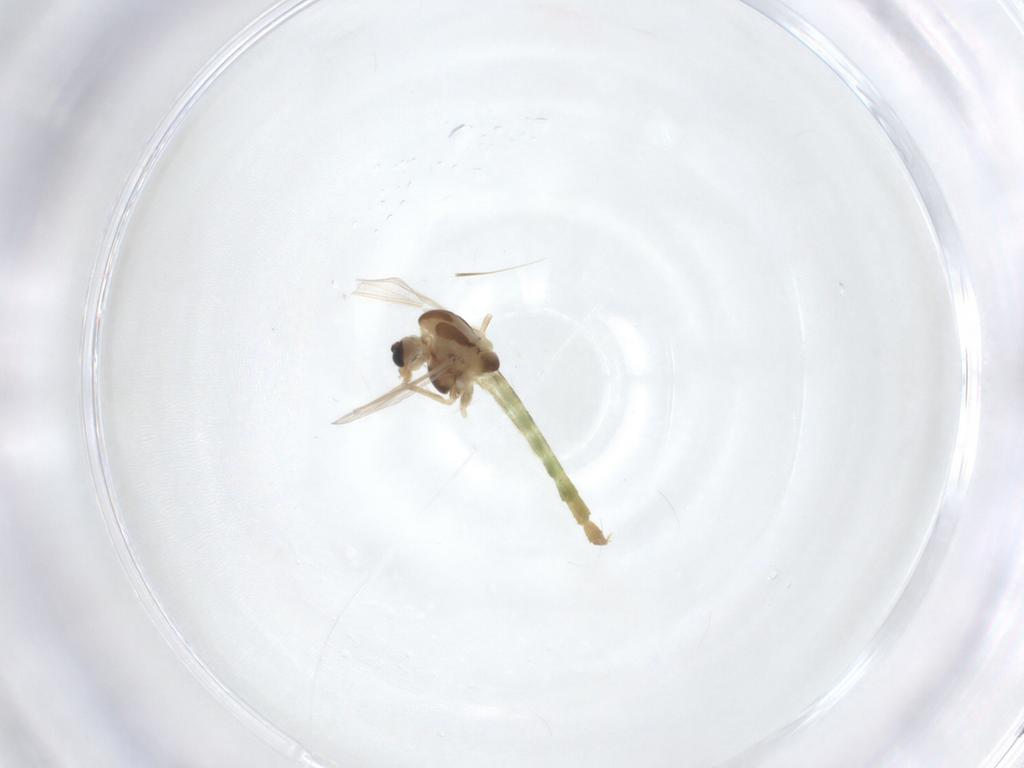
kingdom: Animalia
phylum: Arthropoda
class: Insecta
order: Diptera
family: Chironomidae
